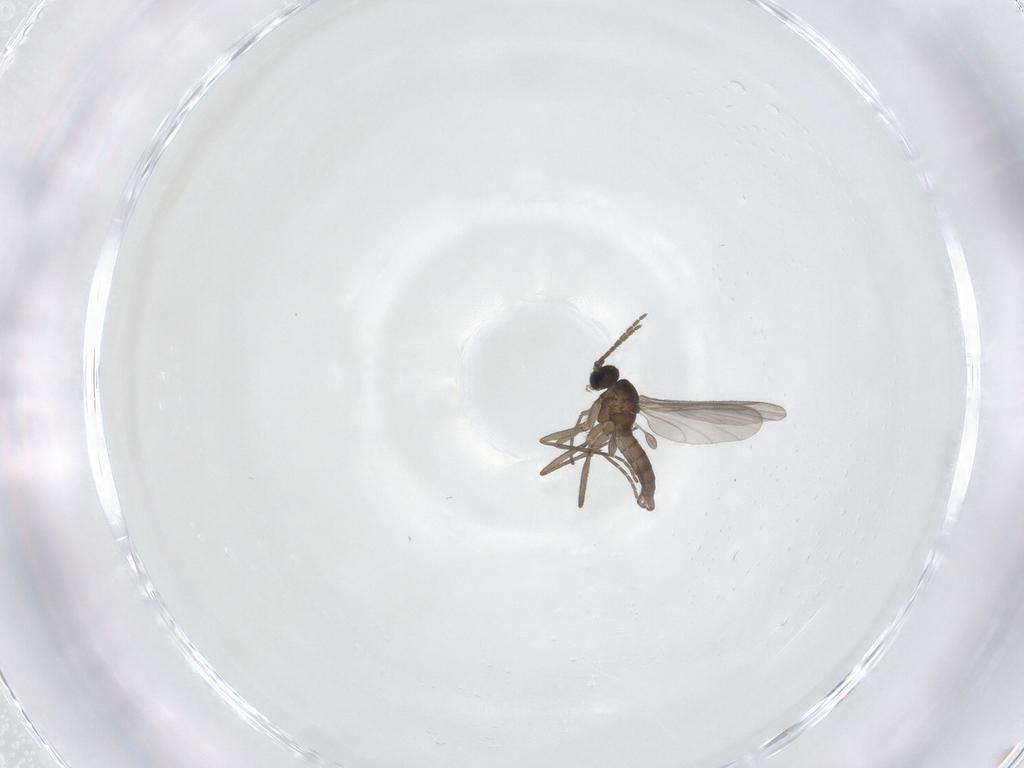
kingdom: Animalia
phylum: Arthropoda
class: Insecta
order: Diptera
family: Sciaridae
